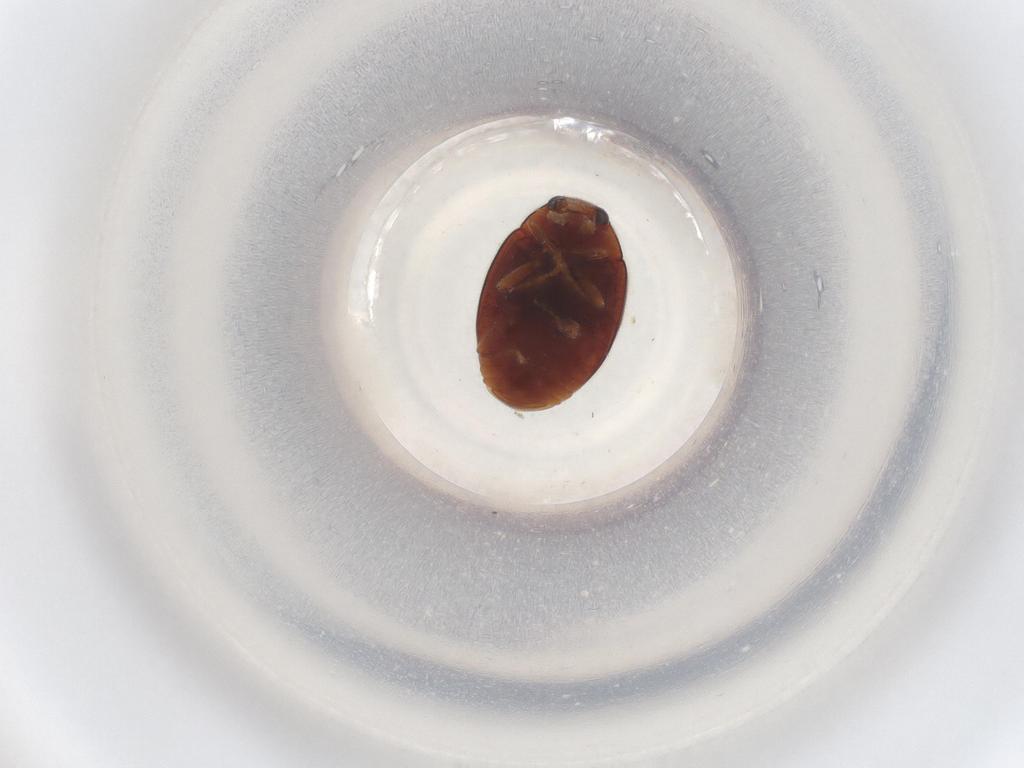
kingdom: Animalia
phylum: Arthropoda
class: Insecta
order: Coleoptera
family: Coccinellidae
